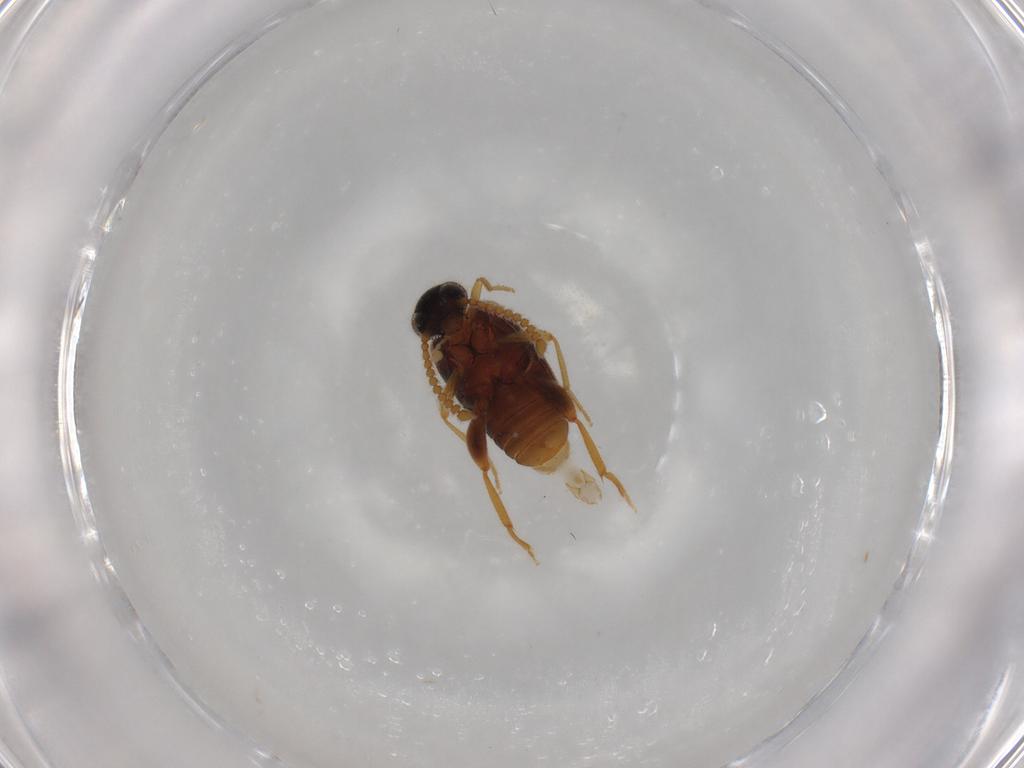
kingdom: Animalia
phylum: Arthropoda
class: Insecta
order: Coleoptera
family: Aderidae
